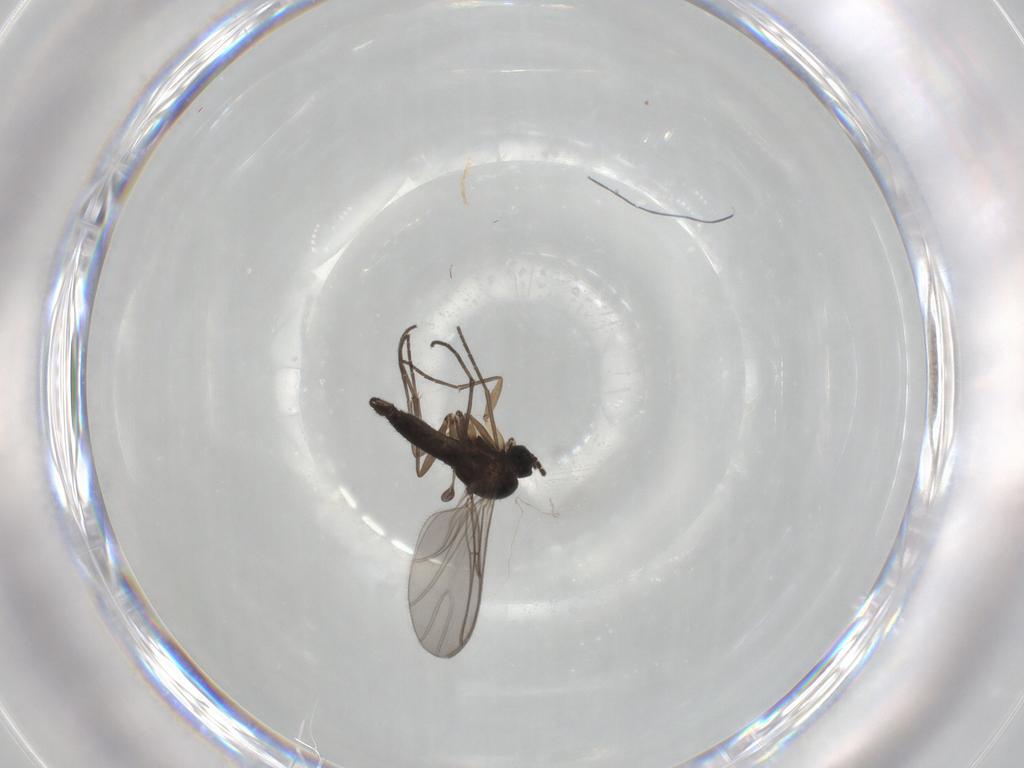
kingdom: Animalia
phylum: Arthropoda
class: Insecta
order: Diptera
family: Sciaridae
